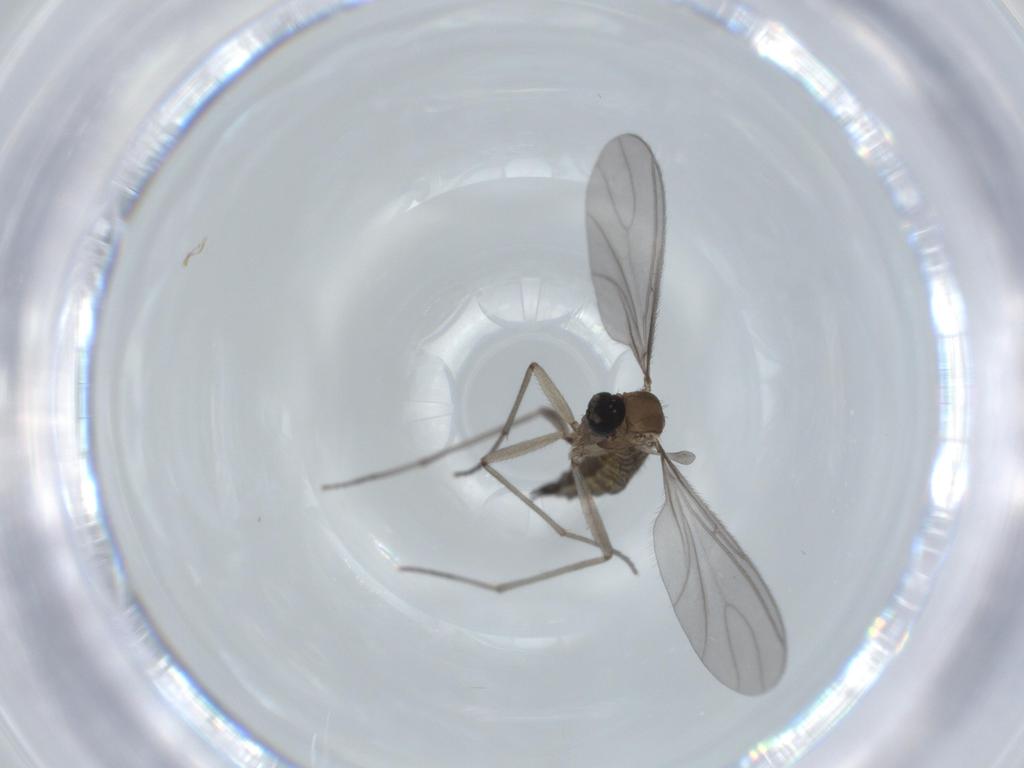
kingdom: Animalia
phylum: Arthropoda
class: Insecta
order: Diptera
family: Sciaridae
